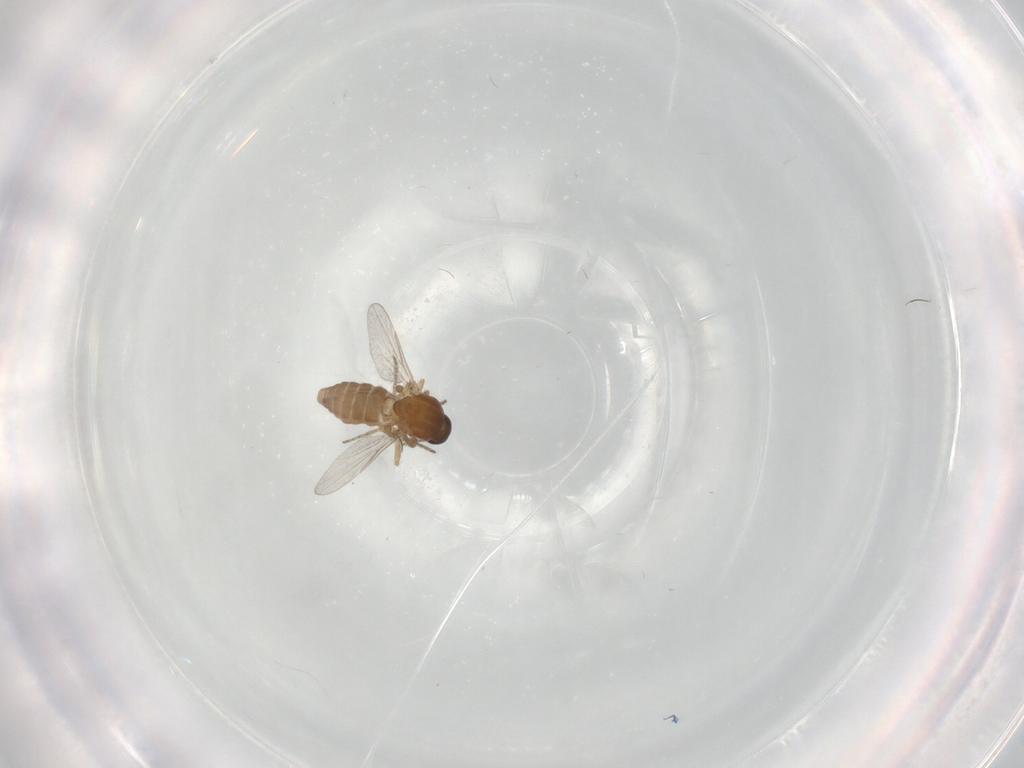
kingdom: Animalia
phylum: Arthropoda
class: Insecta
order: Diptera
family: Ceratopogonidae
